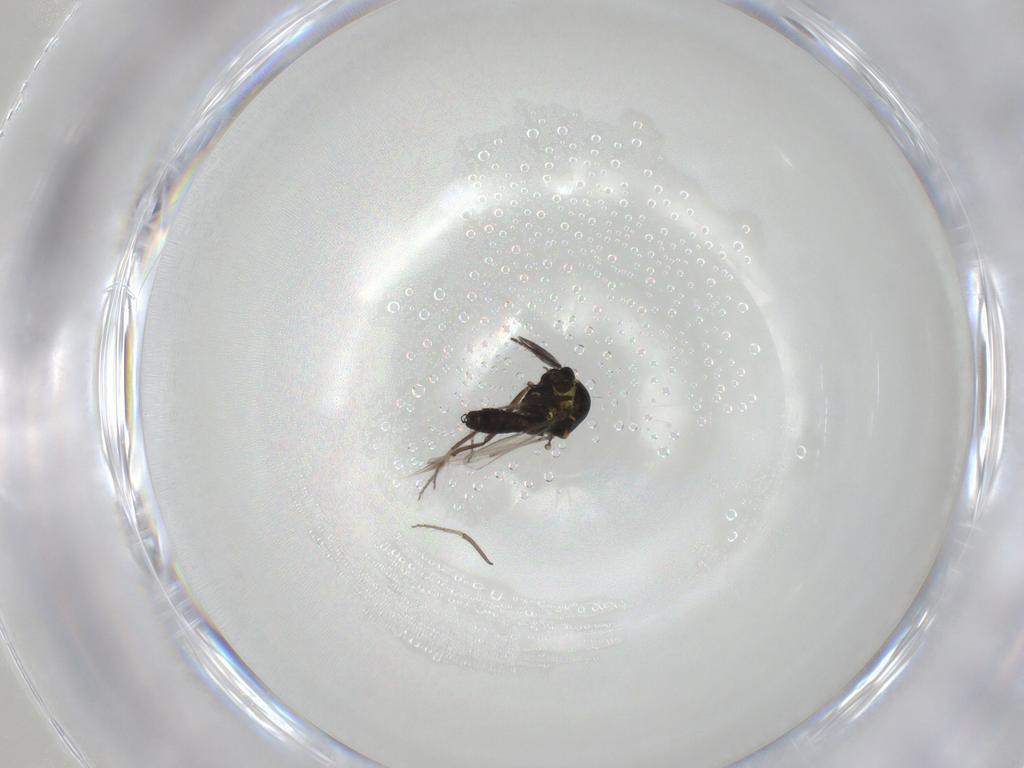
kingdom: Animalia
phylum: Arthropoda
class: Insecta
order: Diptera
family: Ceratopogonidae
